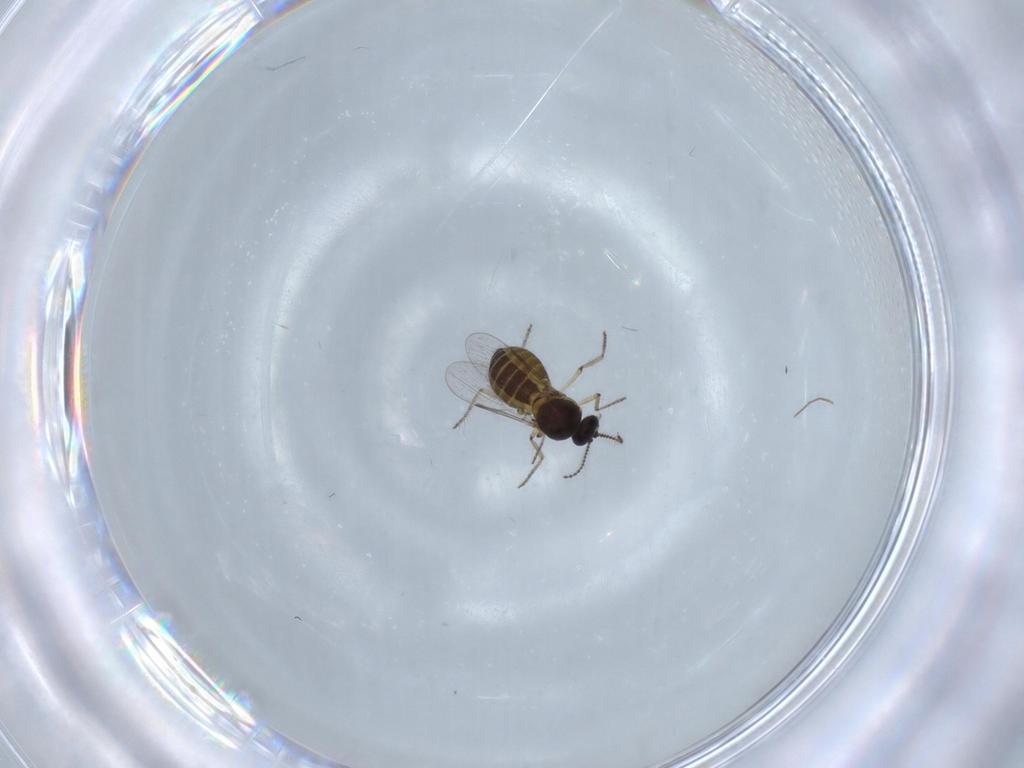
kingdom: Animalia
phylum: Arthropoda
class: Insecta
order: Diptera
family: Ceratopogonidae
